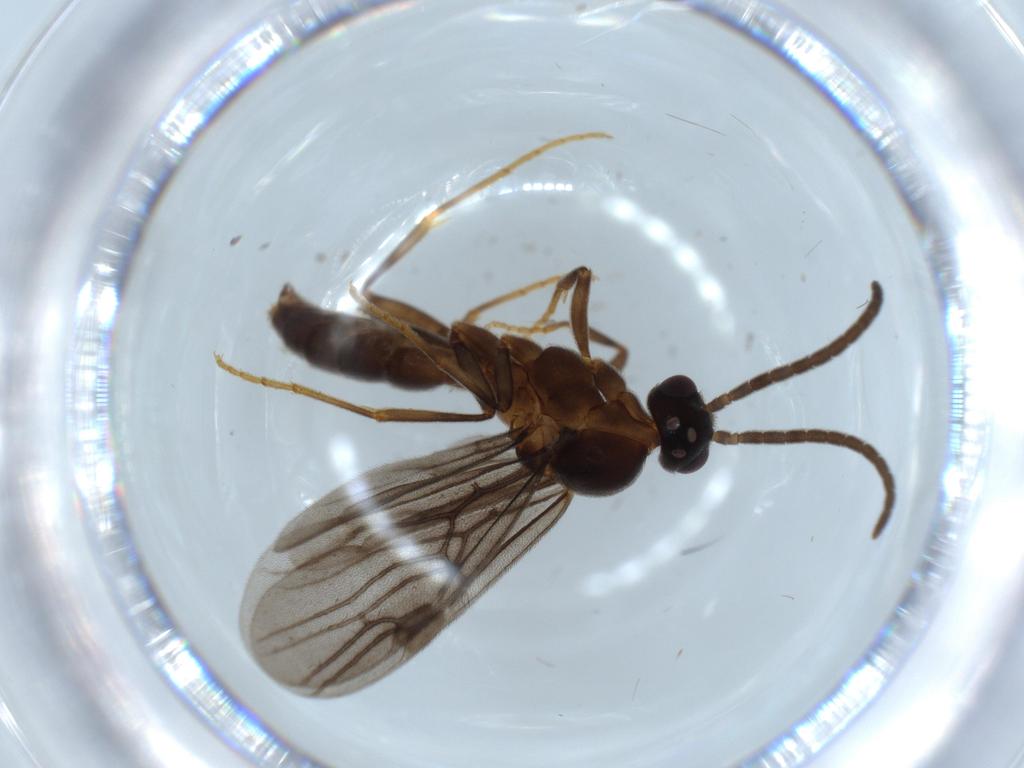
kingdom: Animalia
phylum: Arthropoda
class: Insecta
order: Hymenoptera
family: Formicidae
